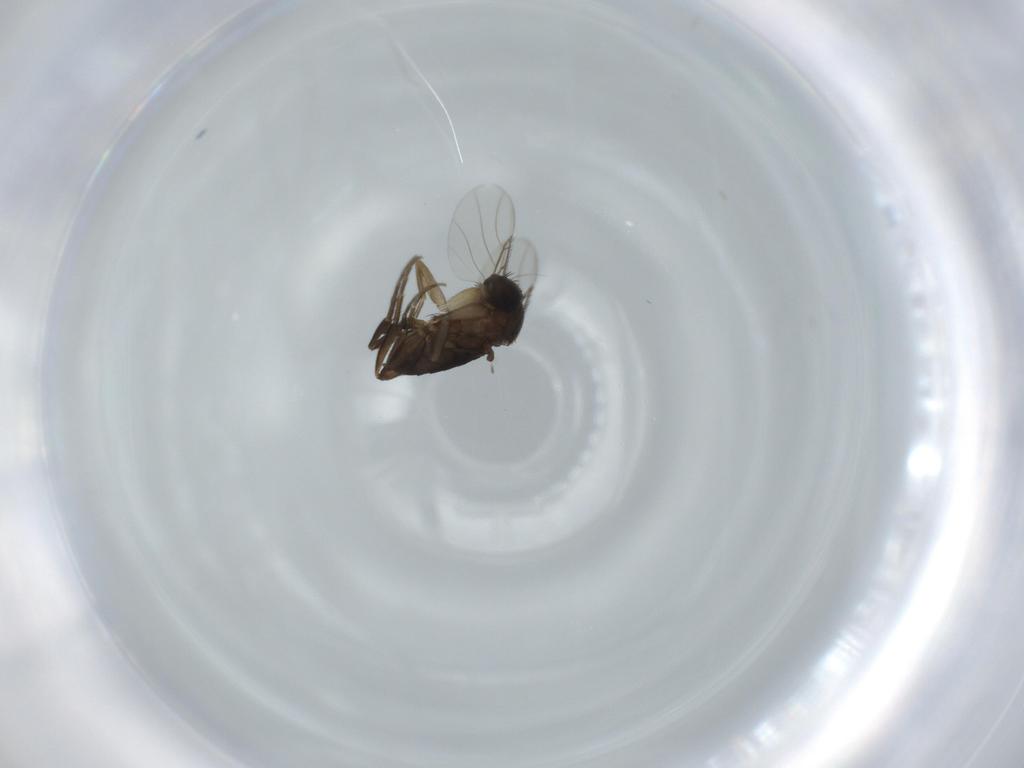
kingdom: Animalia
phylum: Arthropoda
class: Insecta
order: Diptera
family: Phoridae
